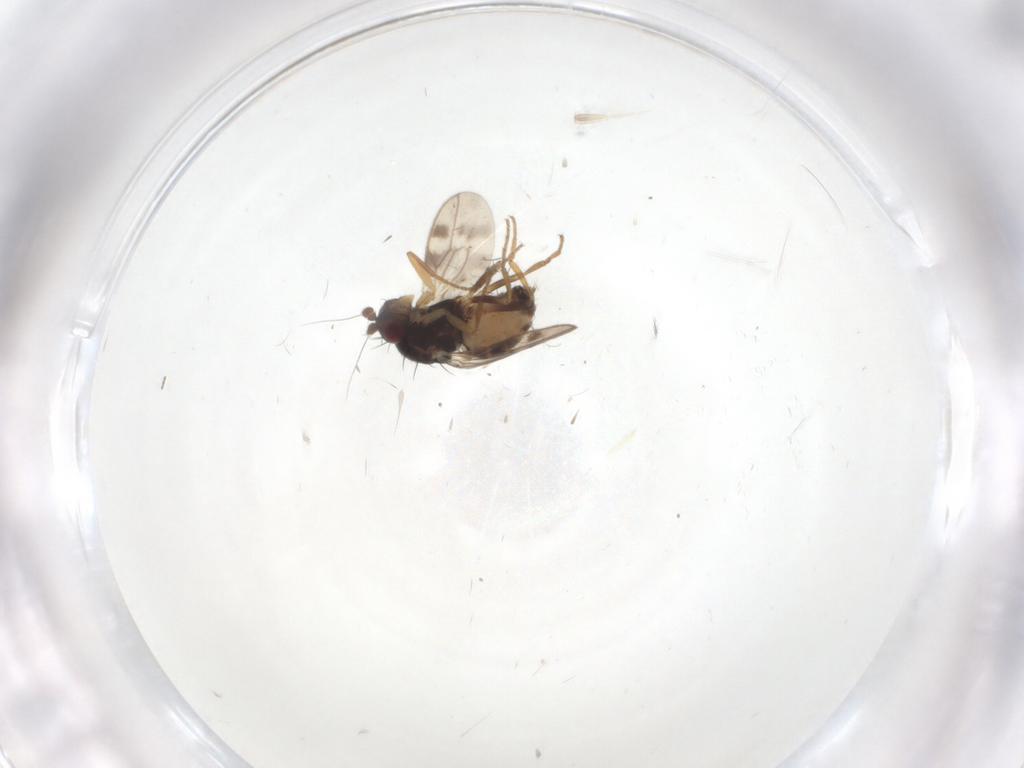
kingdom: Animalia
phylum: Arthropoda
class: Insecta
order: Diptera
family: Sphaeroceridae
